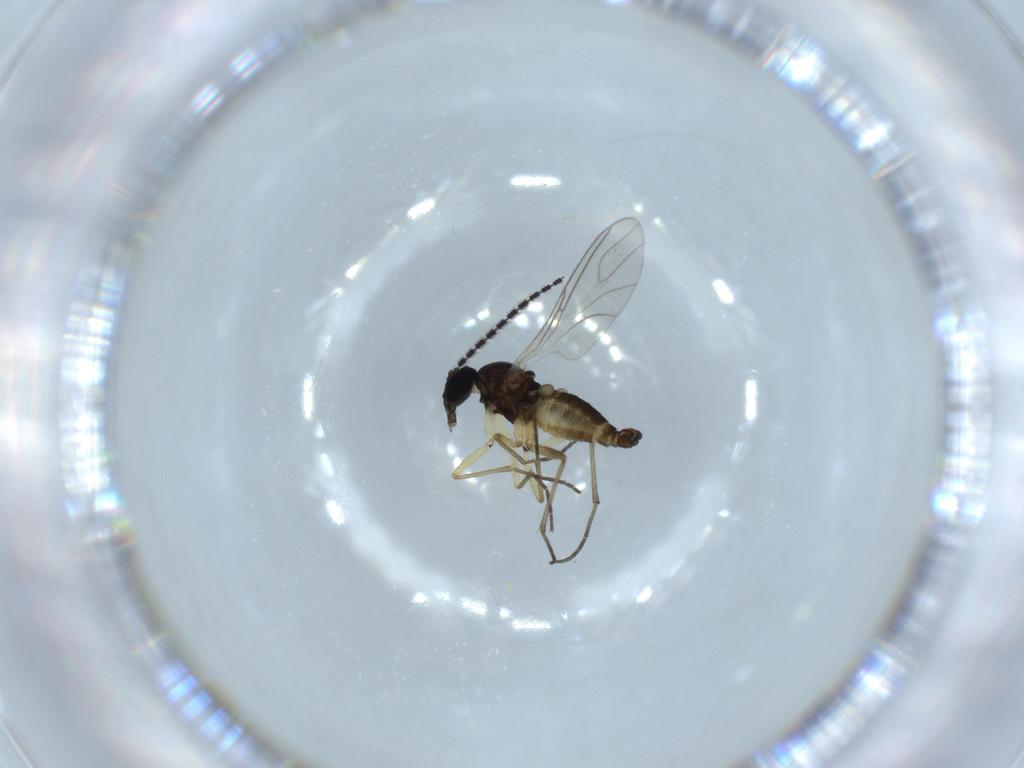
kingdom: Animalia
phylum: Arthropoda
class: Insecta
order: Diptera
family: Sciaridae
